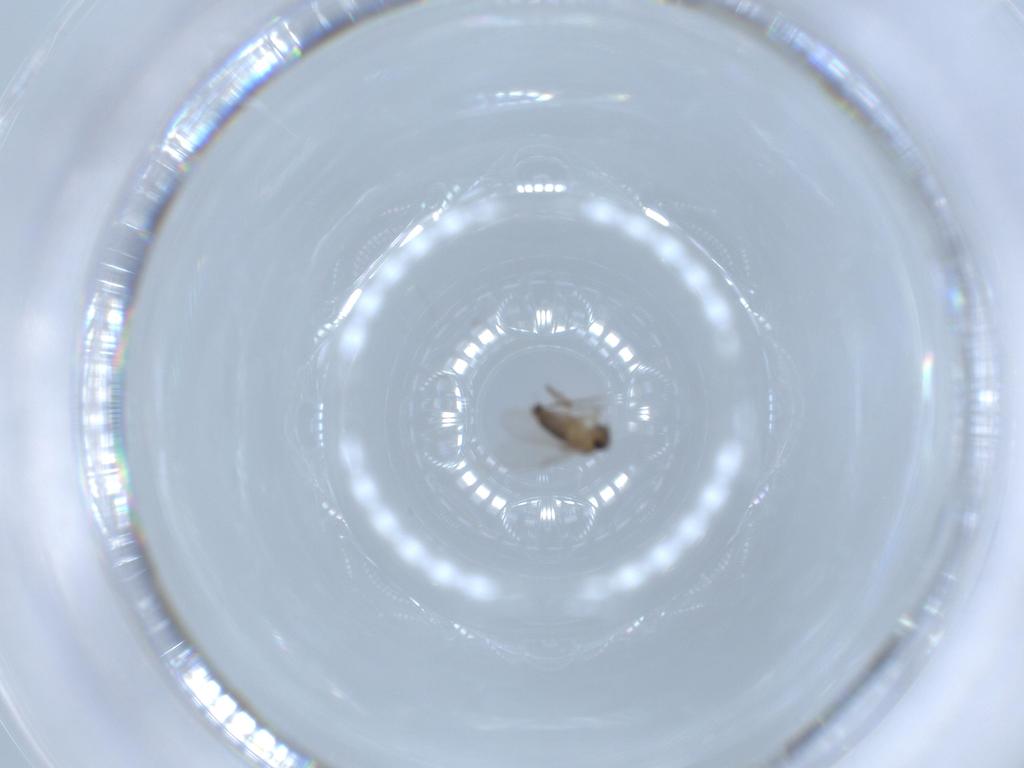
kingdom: Animalia
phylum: Arthropoda
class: Insecta
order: Diptera
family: Phoridae
